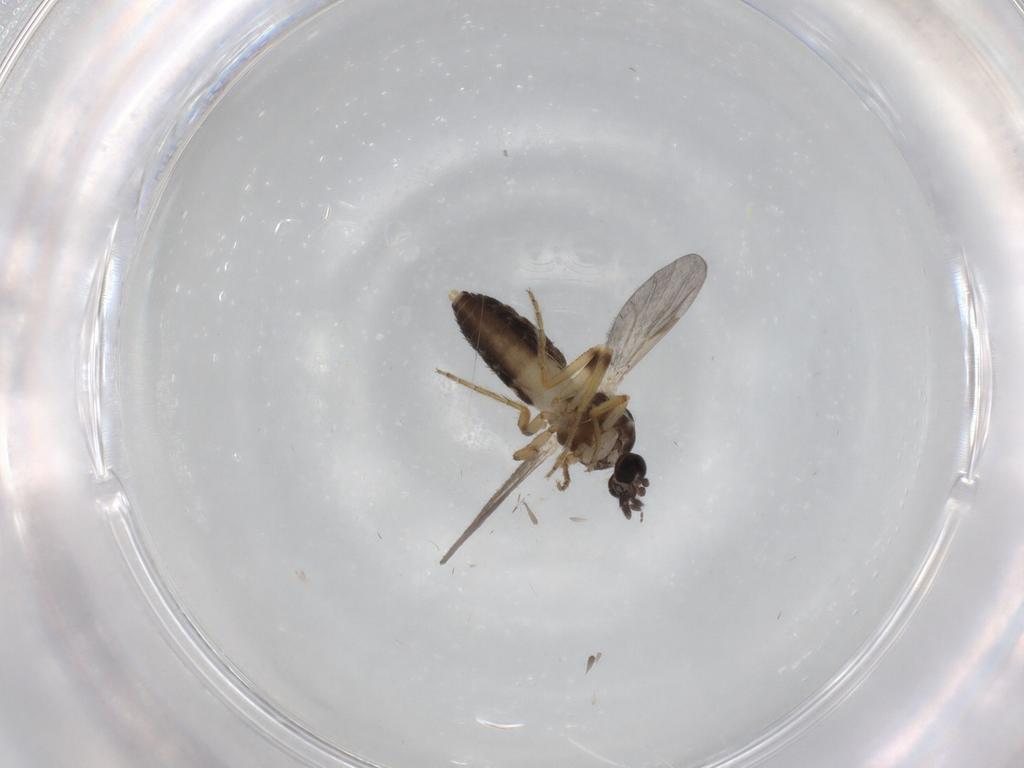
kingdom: Animalia
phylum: Arthropoda
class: Insecta
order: Diptera
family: Ceratopogonidae
